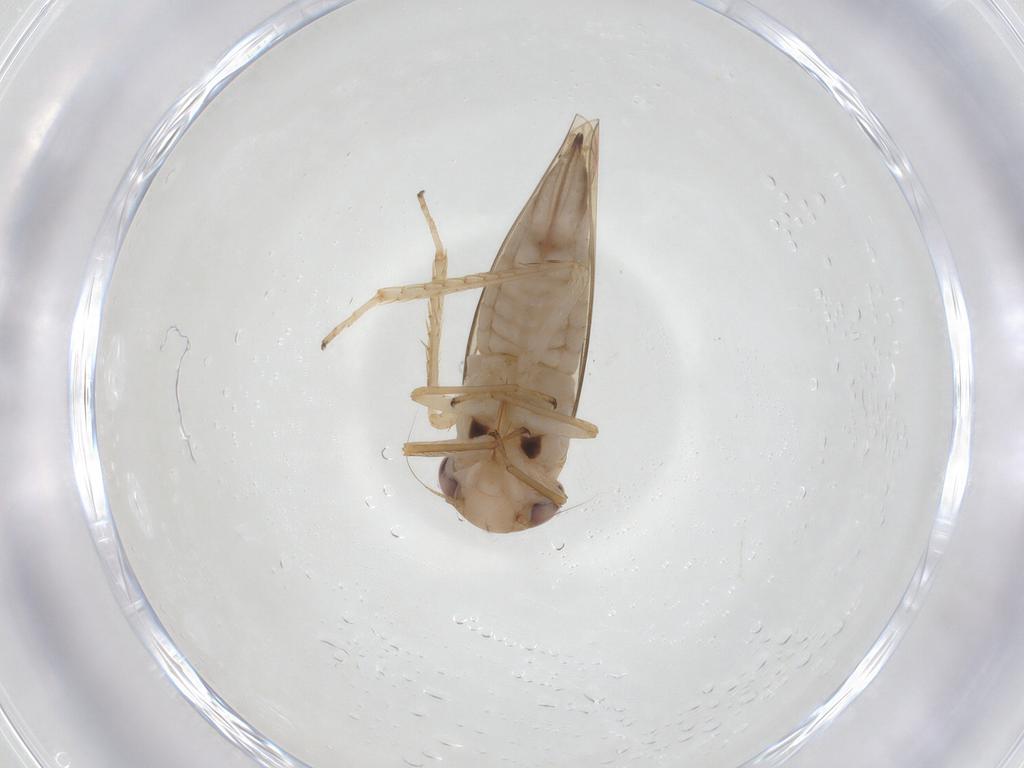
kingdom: Animalia
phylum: Arthropoda
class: Insecta
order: Hemiptera
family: Cicadellidae
